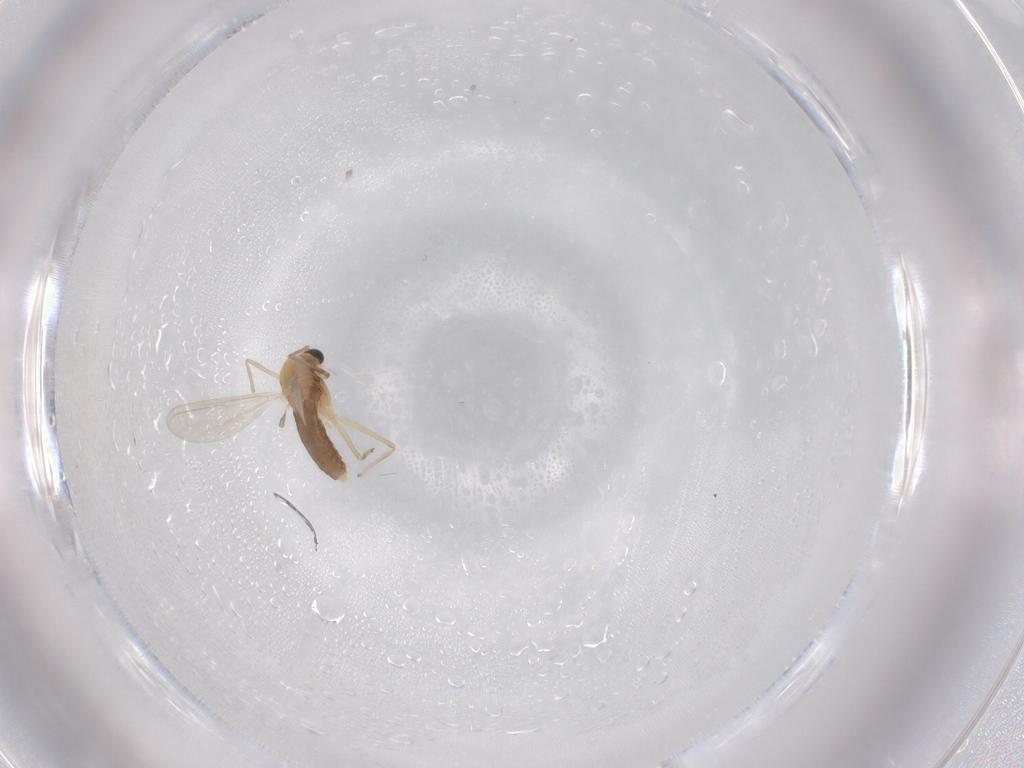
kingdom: Animalia
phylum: Arthropoda
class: Insecta
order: Diptera
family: Chironomidae
